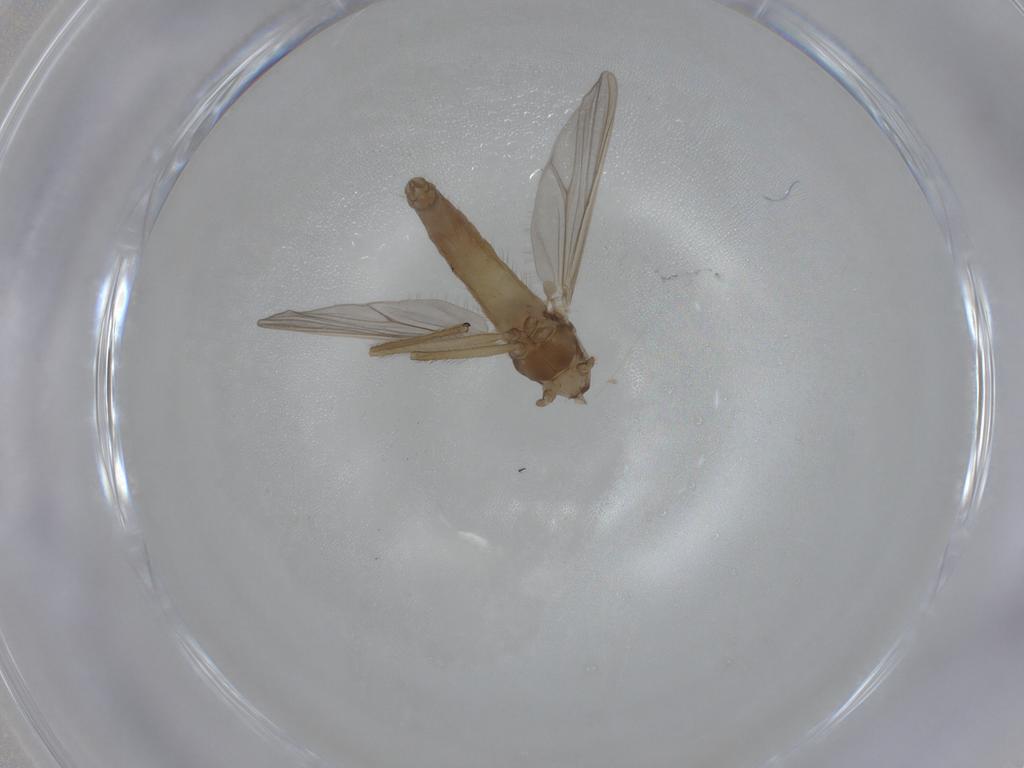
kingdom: Animalia
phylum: Arthropoda
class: Insecta
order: Diptera
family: Chironomidae
